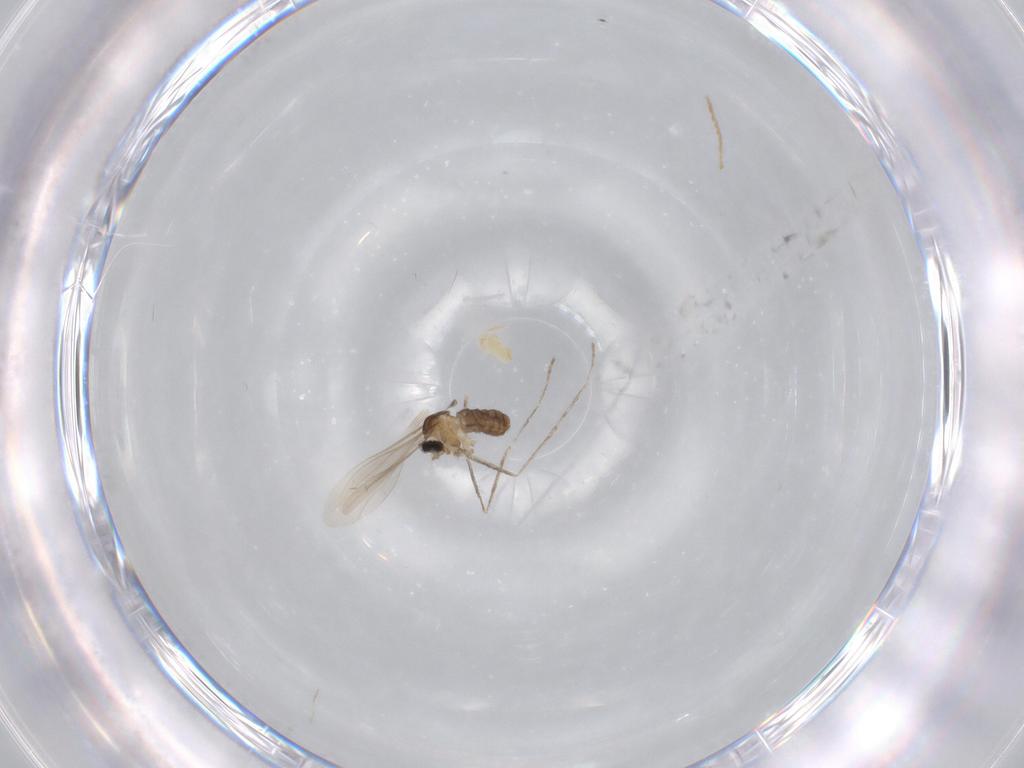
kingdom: Animalia
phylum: Arthropoda
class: Insecta
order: Diptera
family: Cecidomyiidae
